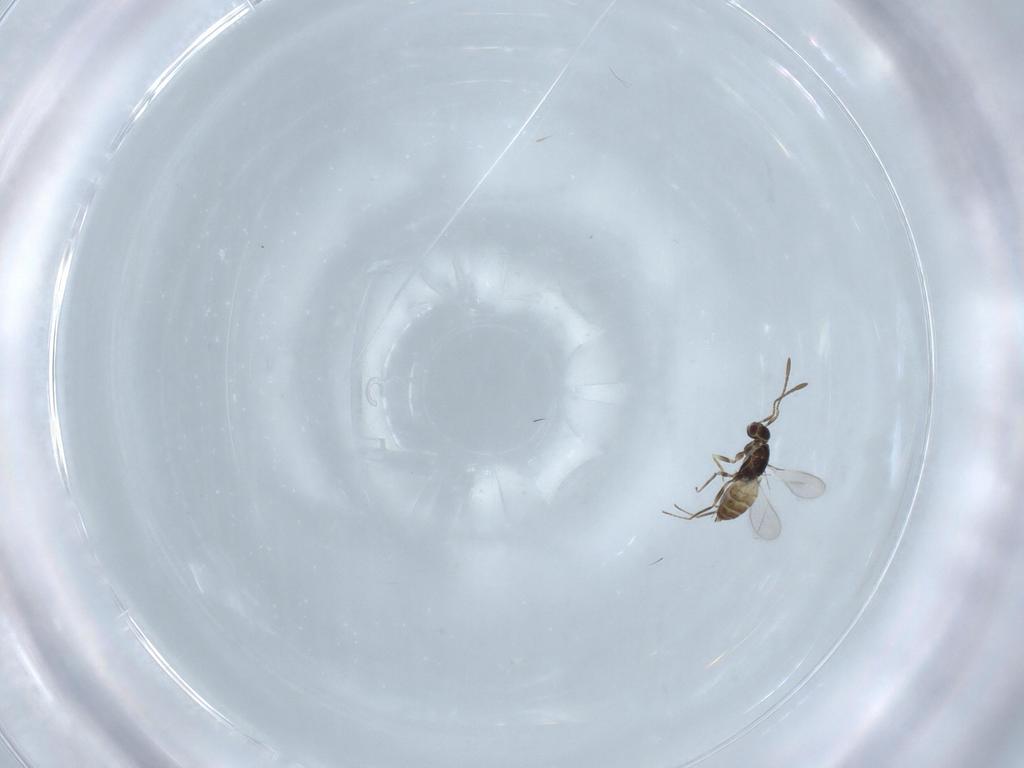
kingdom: Animalia
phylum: Arthropoda
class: Insecta
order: Hymenoptera
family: Mymaridae
